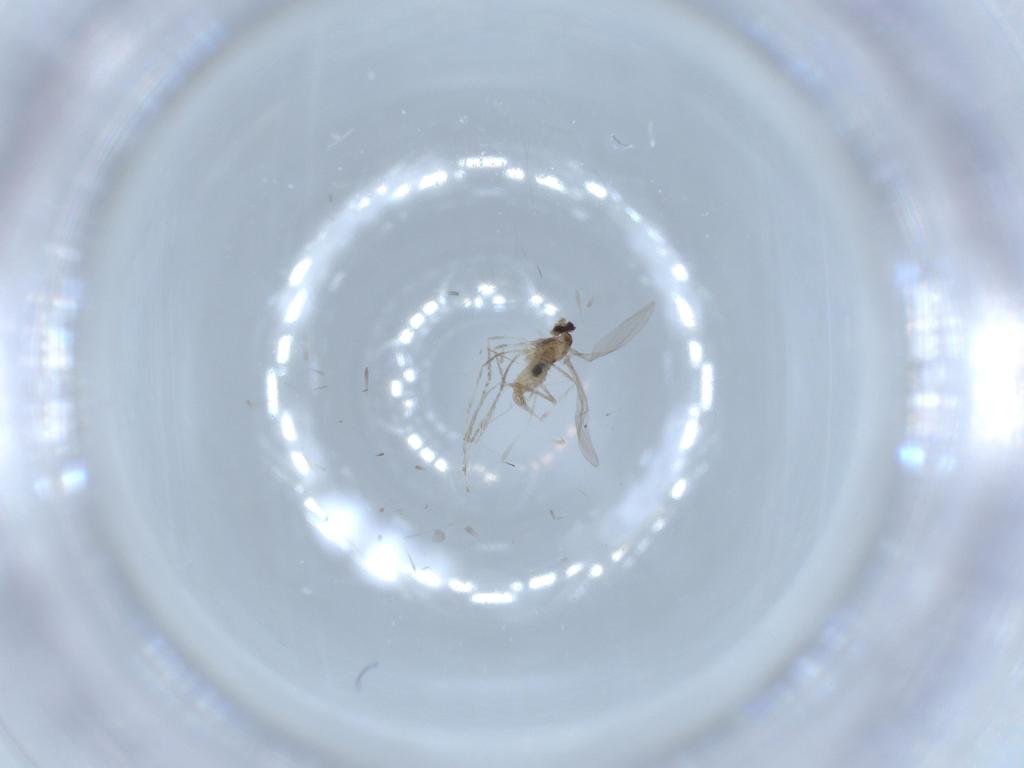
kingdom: Animalia
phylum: Arthropoda
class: Insecta
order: Diptera
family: Cecidomyiidae
